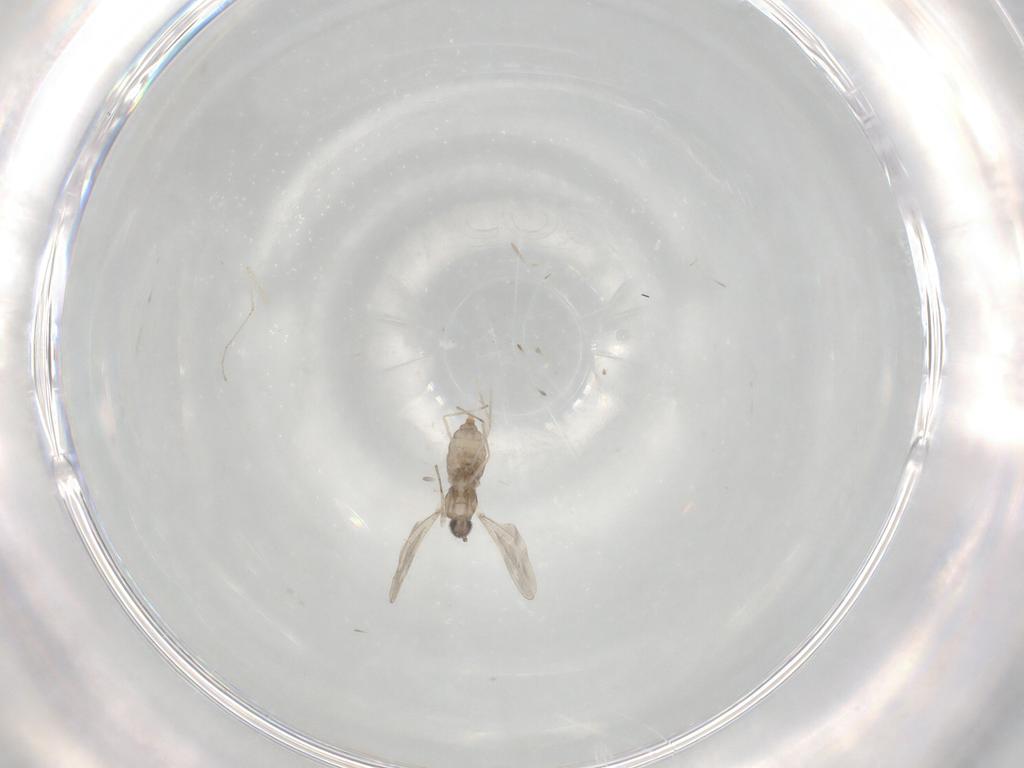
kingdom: Animalia
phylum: Arthropoda
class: Insecta
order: Diptera
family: Cecidomyiidae
